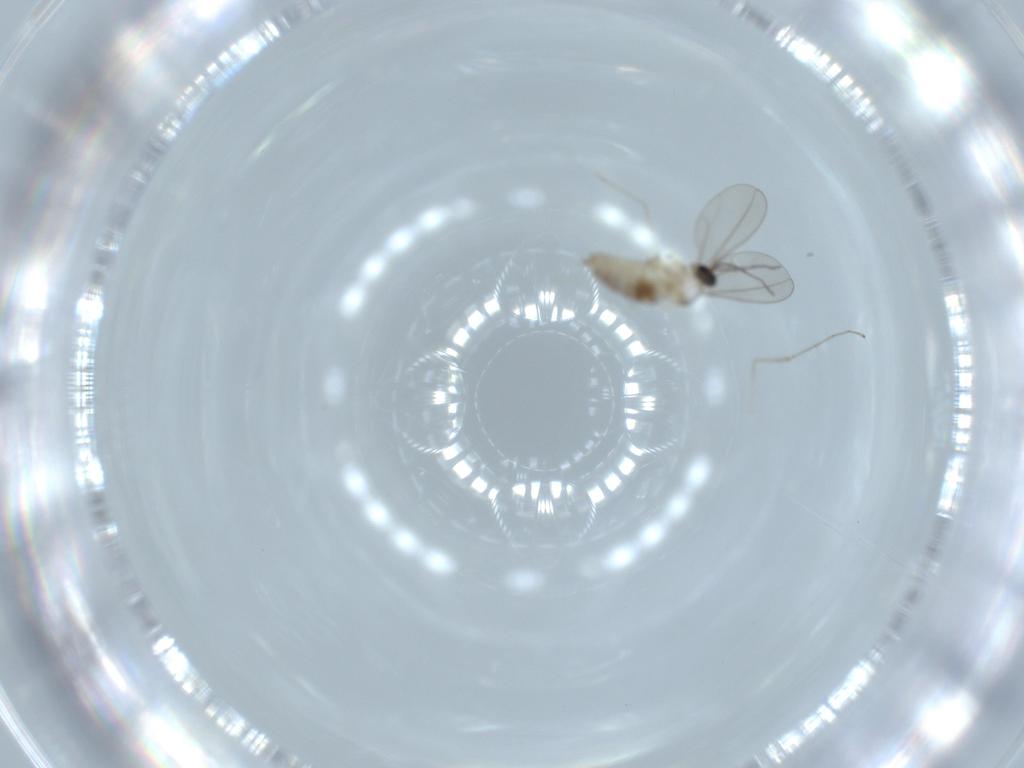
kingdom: Animalia
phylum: Arthropoda
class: Insecta
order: Diptera
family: Cecidomyiidae
